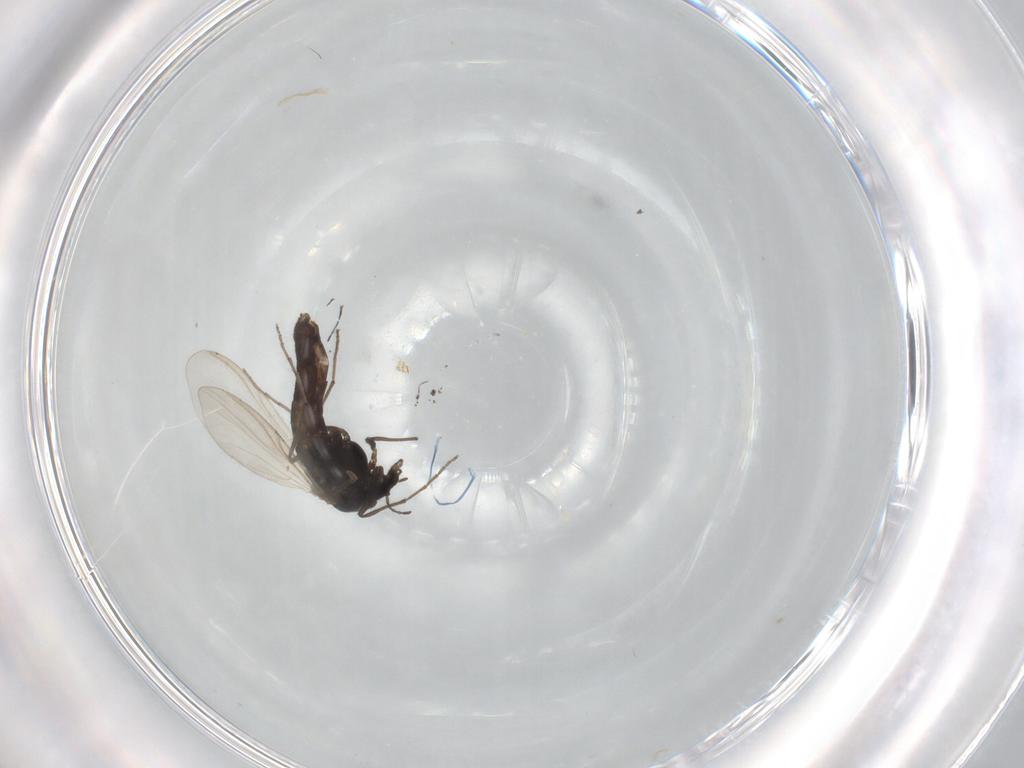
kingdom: Animalia
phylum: Arthropoda
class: Insecta
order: Diptera
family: Chironomidae
